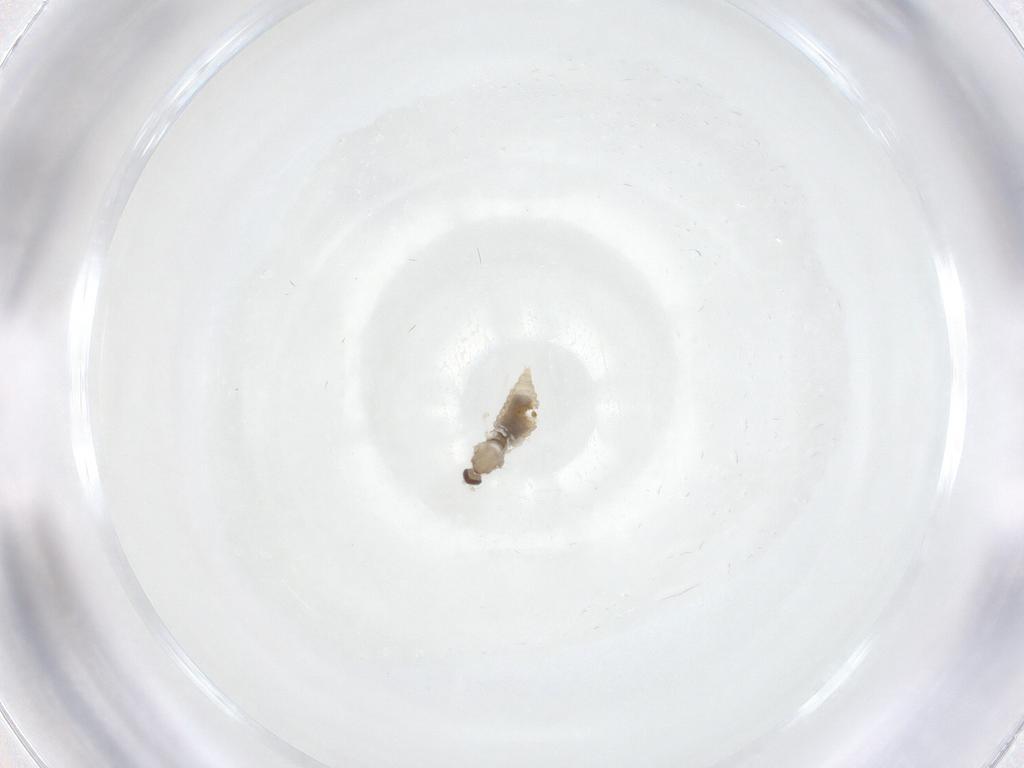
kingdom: Animalia
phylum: Arthropoda
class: Insecta
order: Diptera
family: Cecidomyiidae
